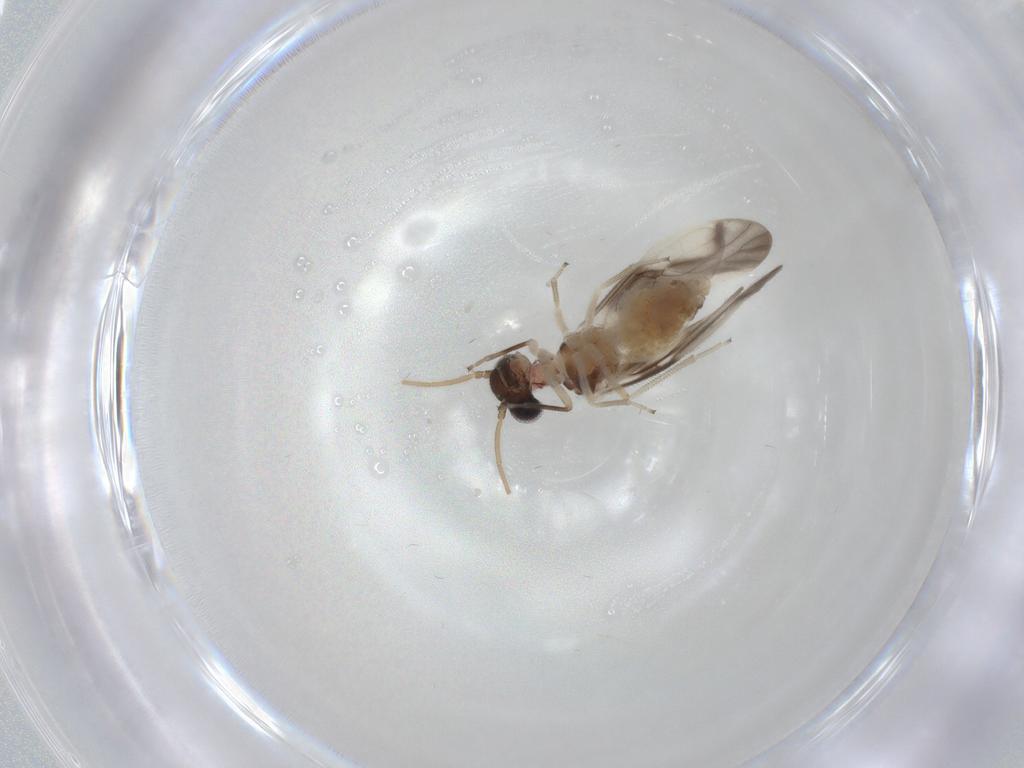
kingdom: Animalia
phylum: Arthropoda
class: Insecta
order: Psocodea
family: Caeciliusidae
